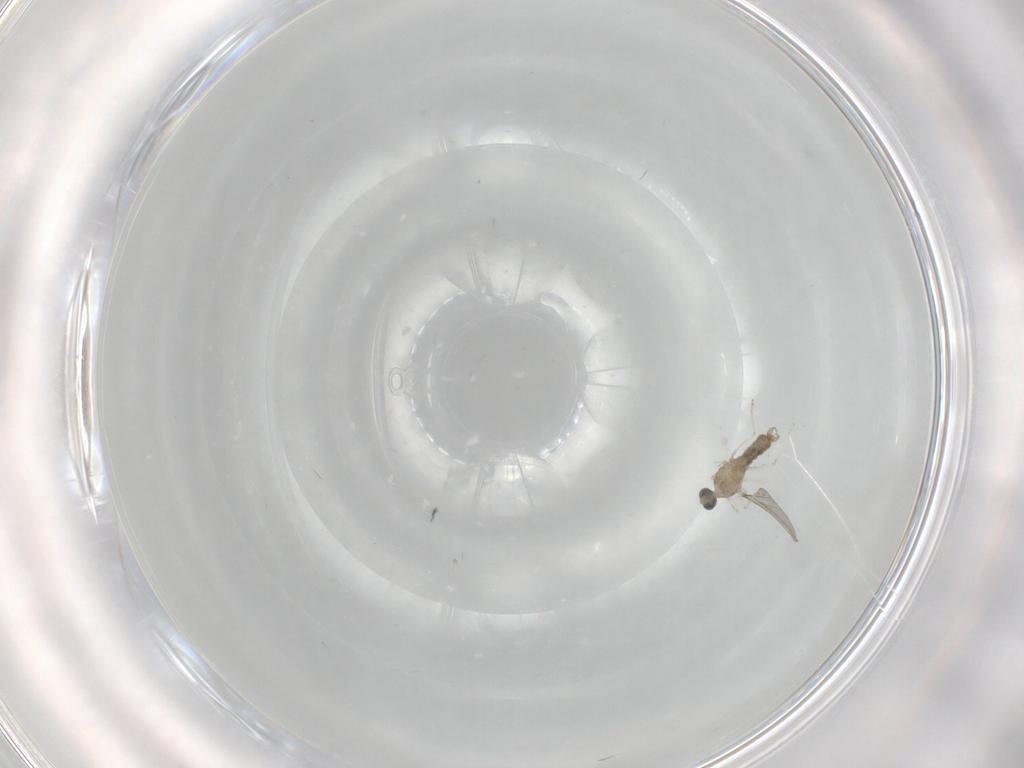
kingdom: Animalia
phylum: Arthropoda
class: Insecta
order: Diptera
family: Cecidomyiidae
